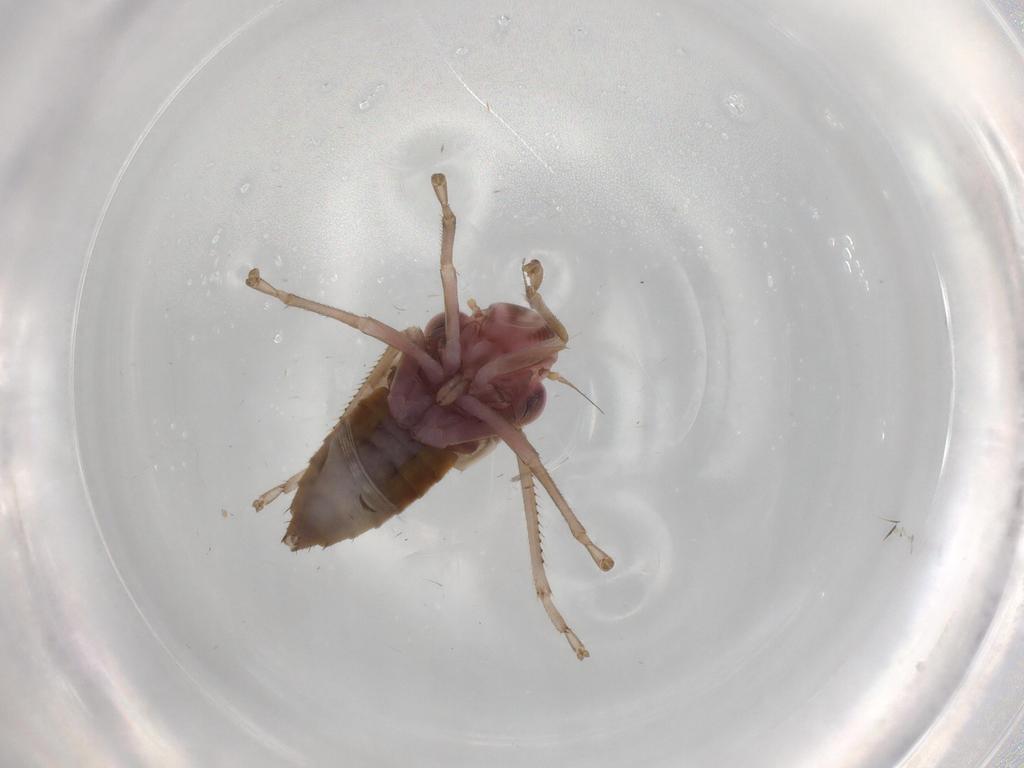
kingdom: Animalia
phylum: Arthropoda
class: Insecta
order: Hemiptera
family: Cicadellidae
